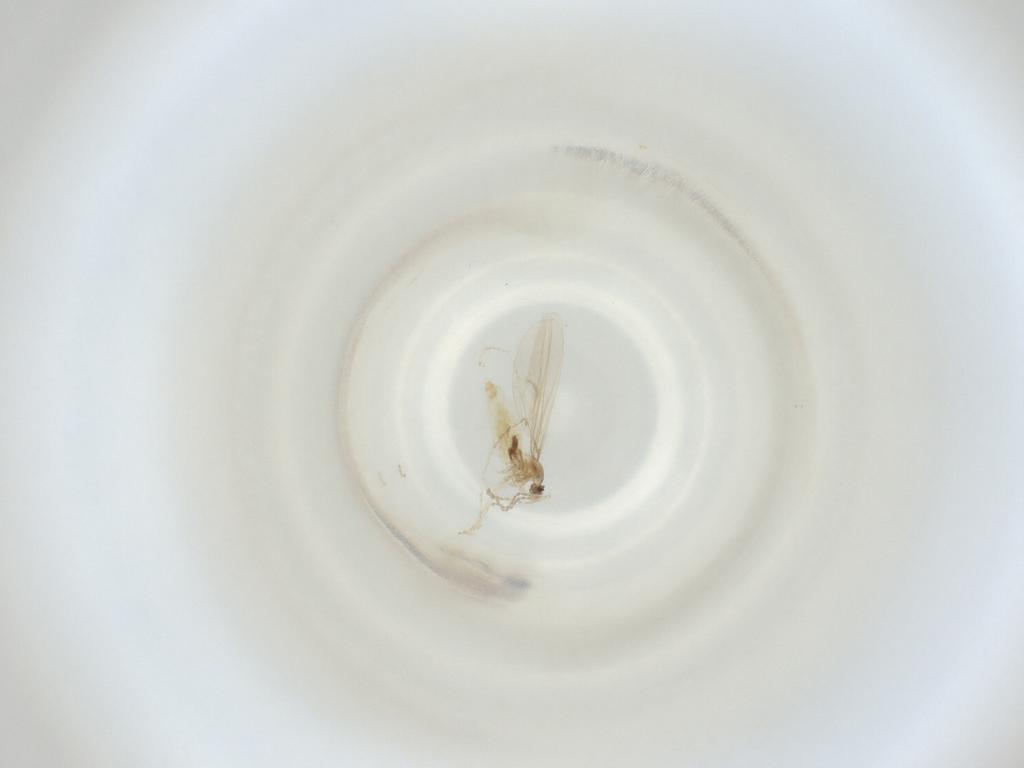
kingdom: Animalia
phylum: Arthropoda
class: Insecta
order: Diptera
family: Cecidomyiidae
